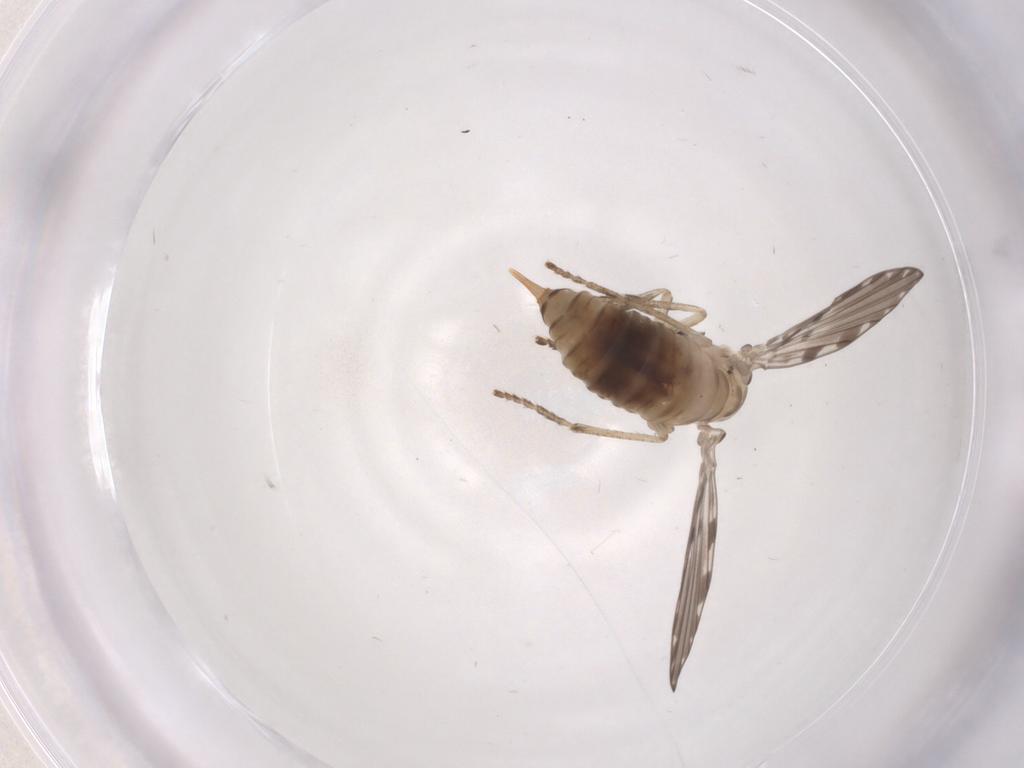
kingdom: Animalia
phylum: Arthropoda
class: Insecta
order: Diptera
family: Psychodidae
